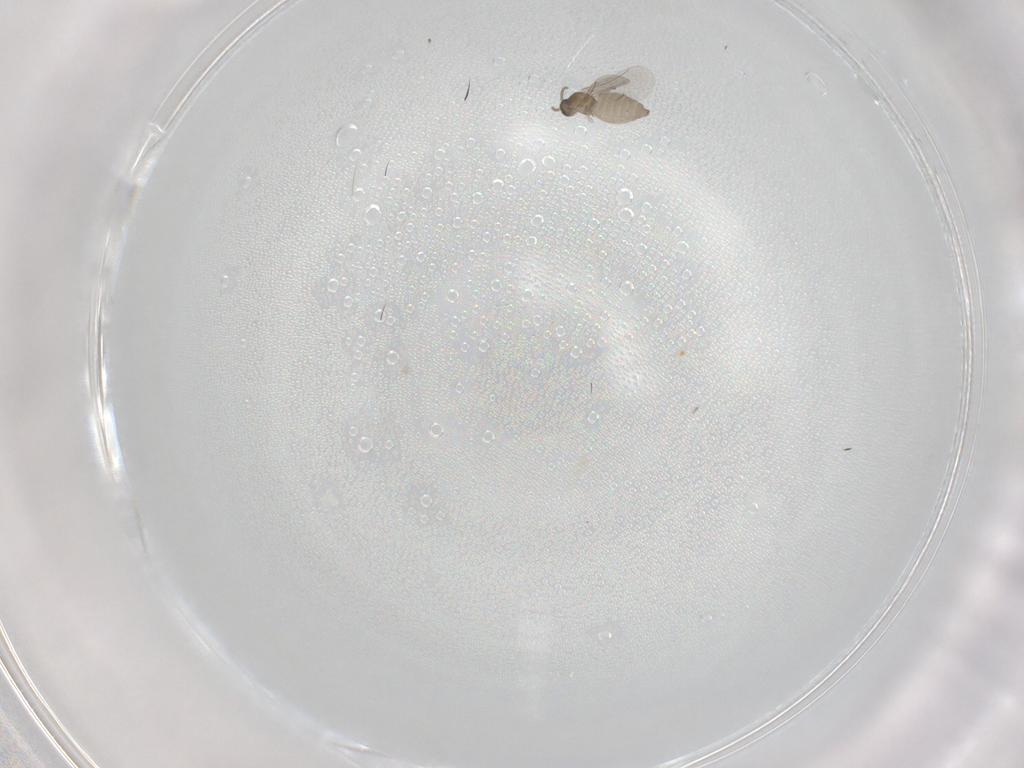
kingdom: Animalia
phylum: Arthropoda
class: Insecta
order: Diptera
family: Cecidomyiidae
